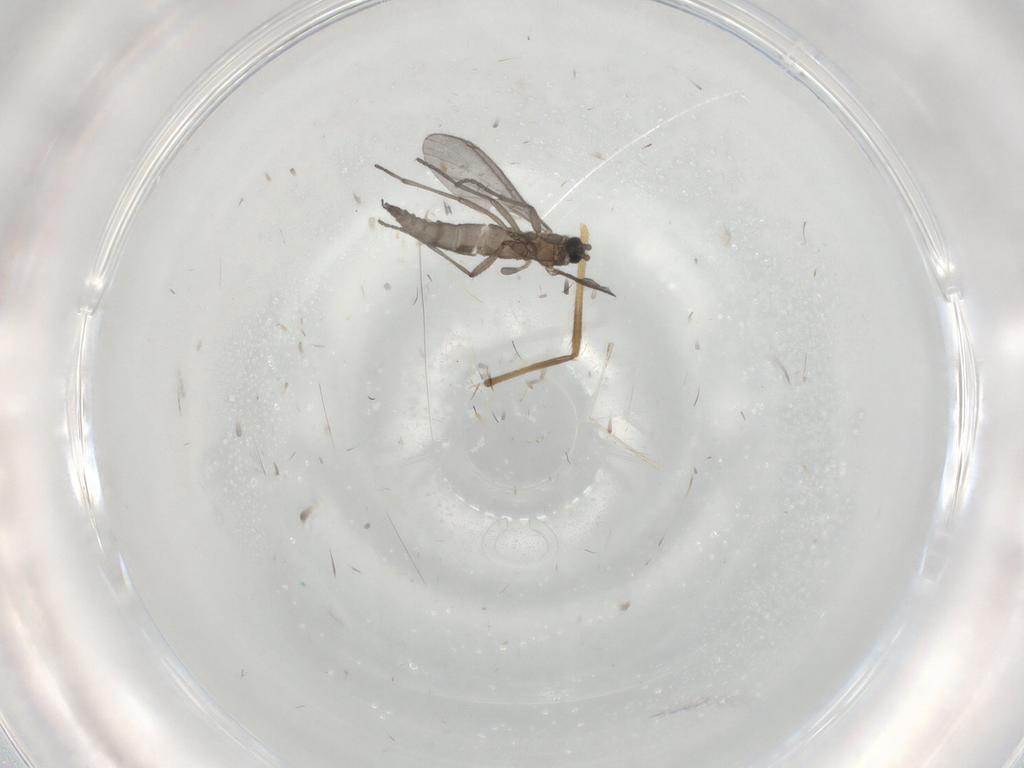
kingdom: Animalia
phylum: Arthropoda
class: Insecta
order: Diptera
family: Sciaridae
